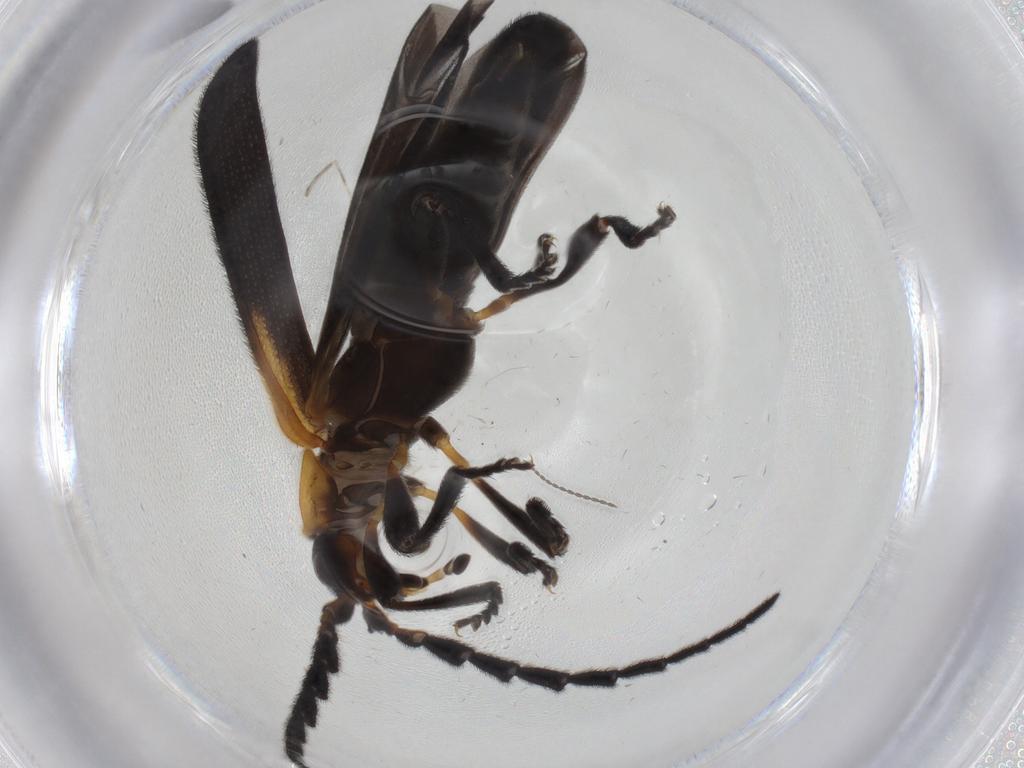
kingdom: Animalia
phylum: Arthropoda
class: Insecta
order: Coleoptera
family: Lycidae
